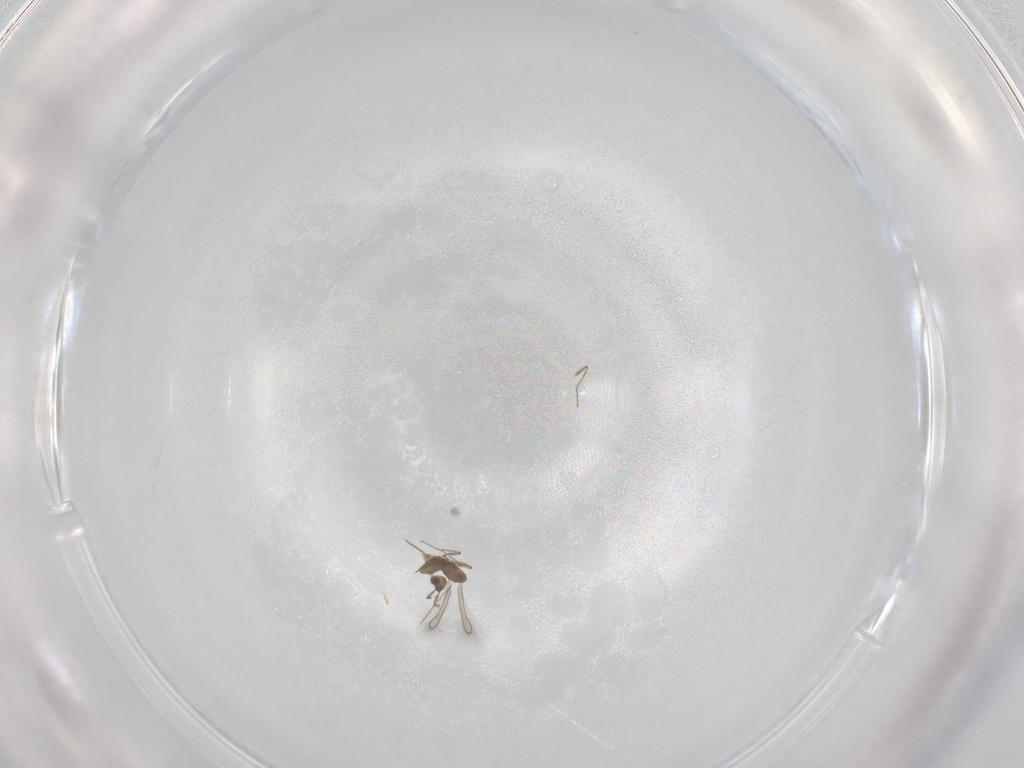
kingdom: Animalia
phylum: Arthropoda
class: Insecta
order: Hymenoptera
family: Mymaridae
